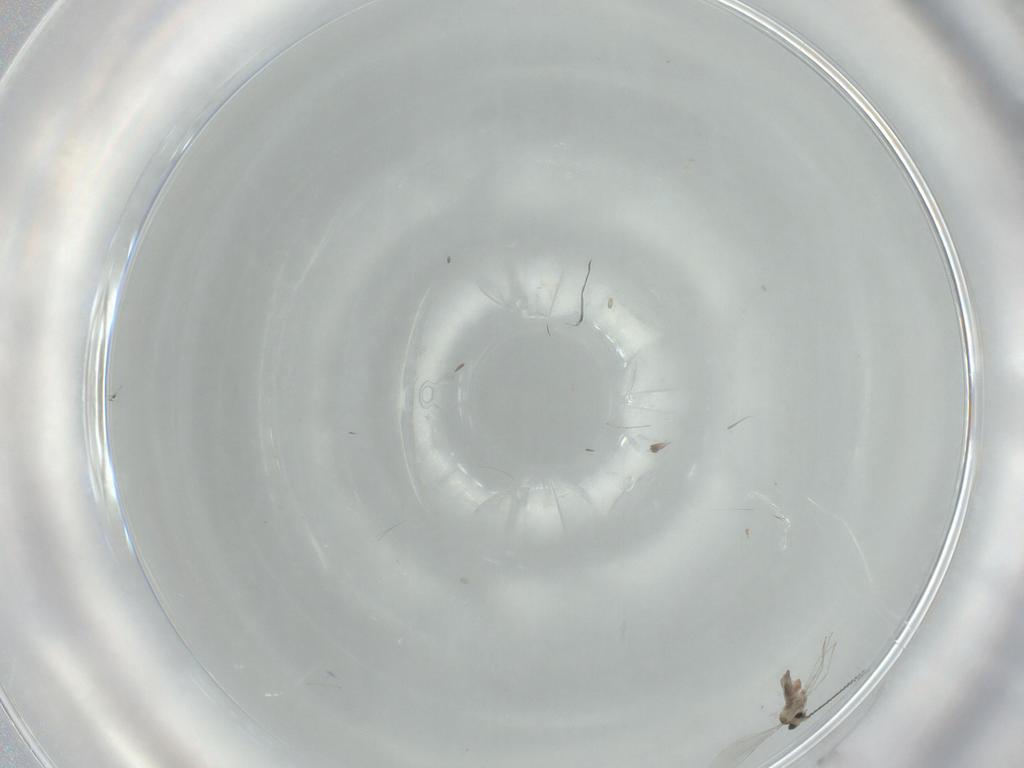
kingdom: Animalia
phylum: Arthropoda
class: Insecta
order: Diptera
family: Cecidomyiidae
